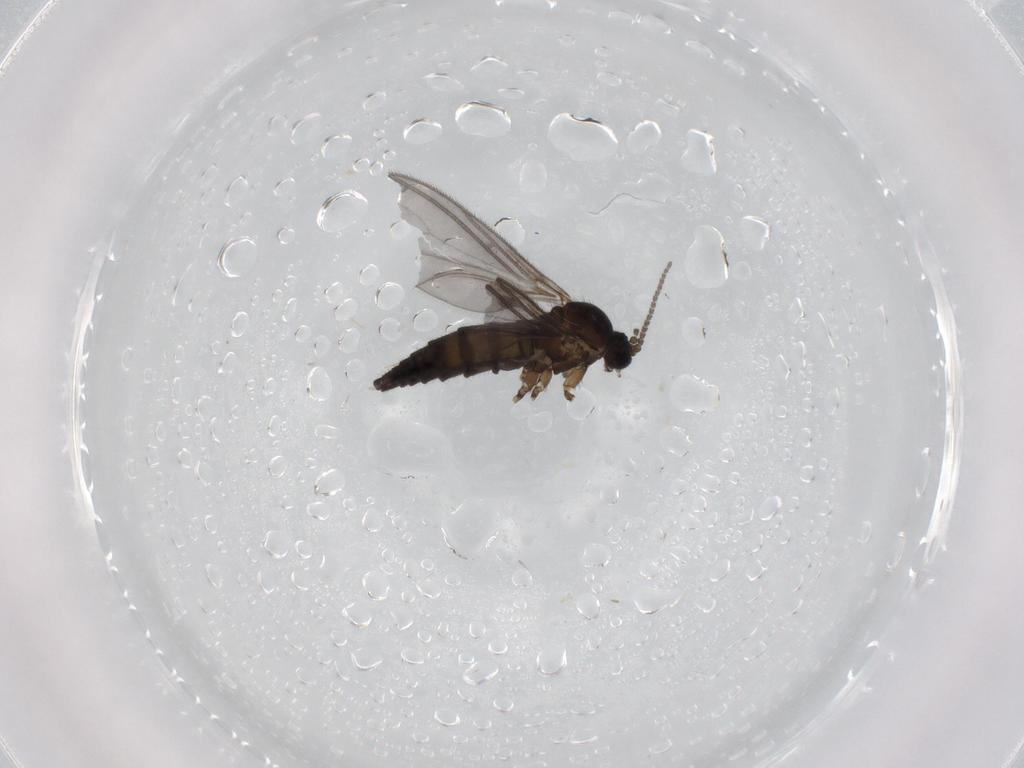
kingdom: Animalia
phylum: Arthropoda
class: Insecta
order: Diptera
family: Sciaridae
